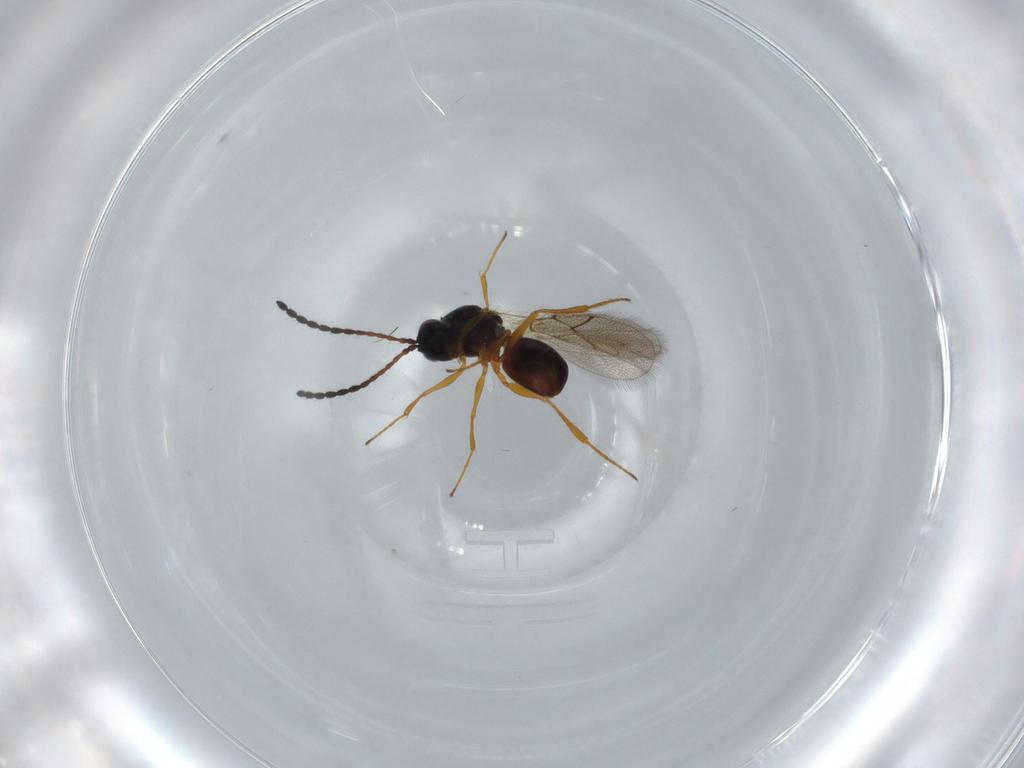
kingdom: Animalia
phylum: Arthropoda
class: Insecta
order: Hymenoptera
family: Figitidae
